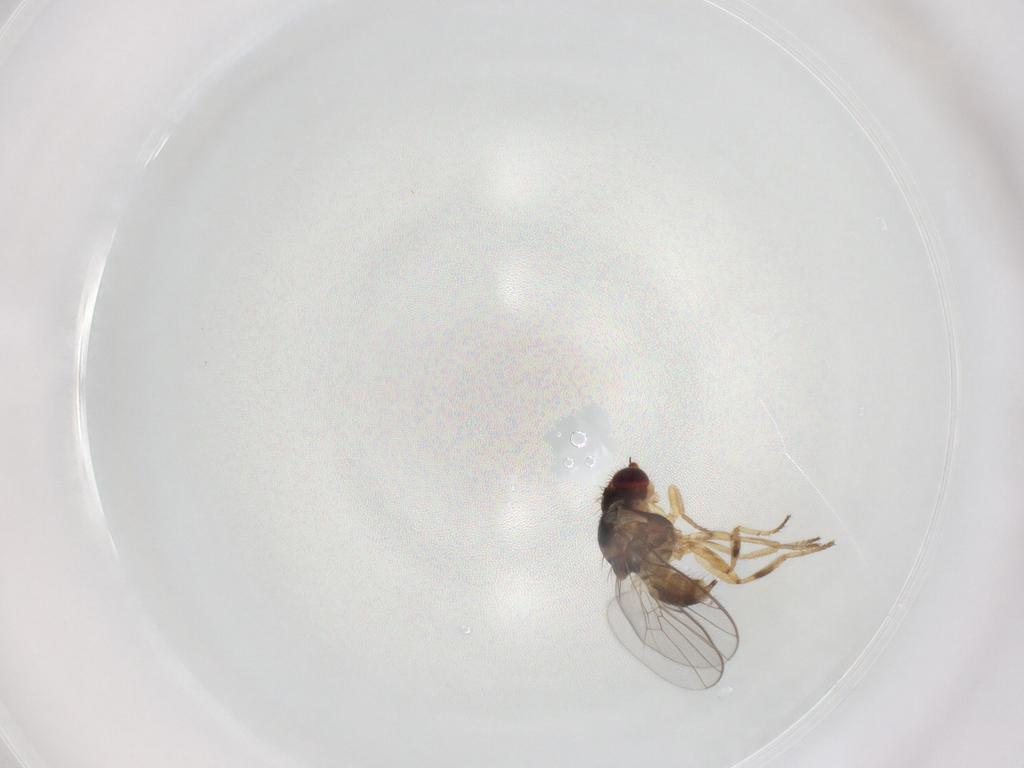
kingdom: Animalia
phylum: Arthropoda
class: Insecta
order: Diptera
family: Chloropidae
